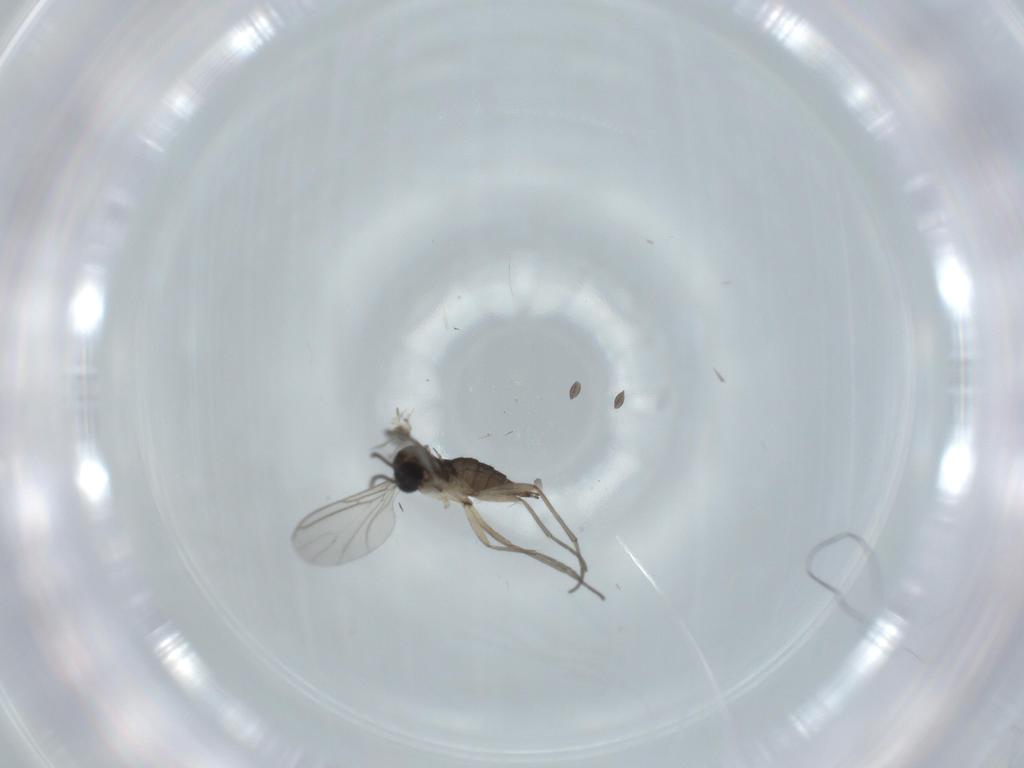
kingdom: Animalia
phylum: Arthropoda
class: Insecta
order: Diptera
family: Sciaridae
